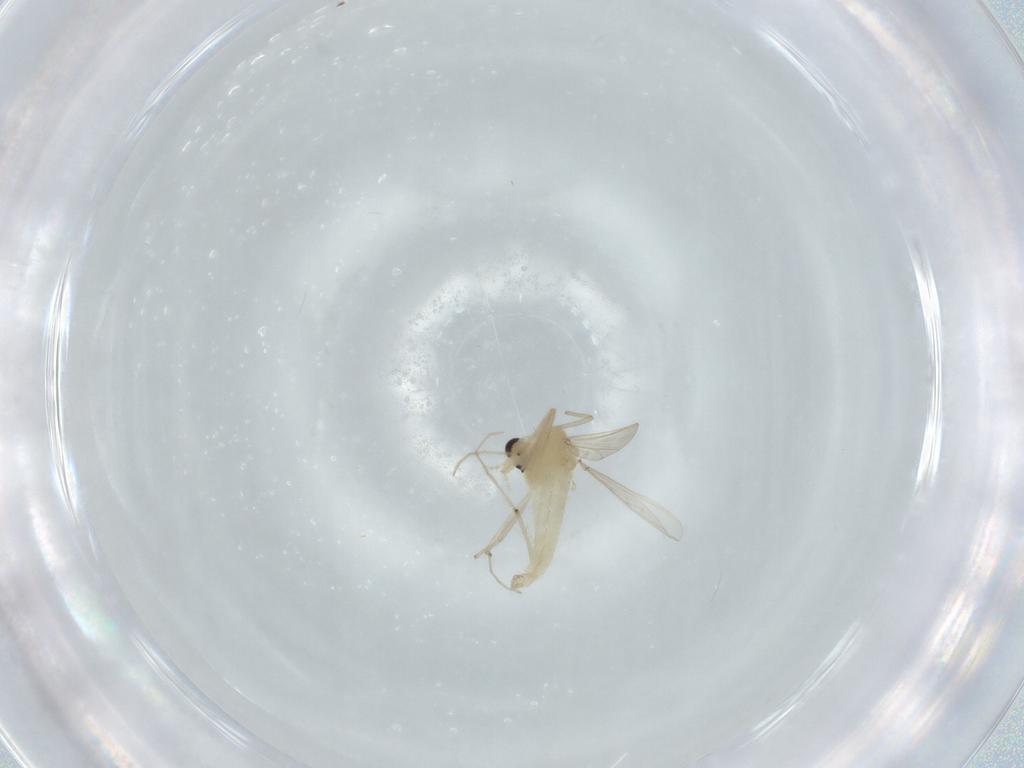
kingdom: Animalia
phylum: Arthropoda
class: Insecta
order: Diptera
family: Chironomidae
